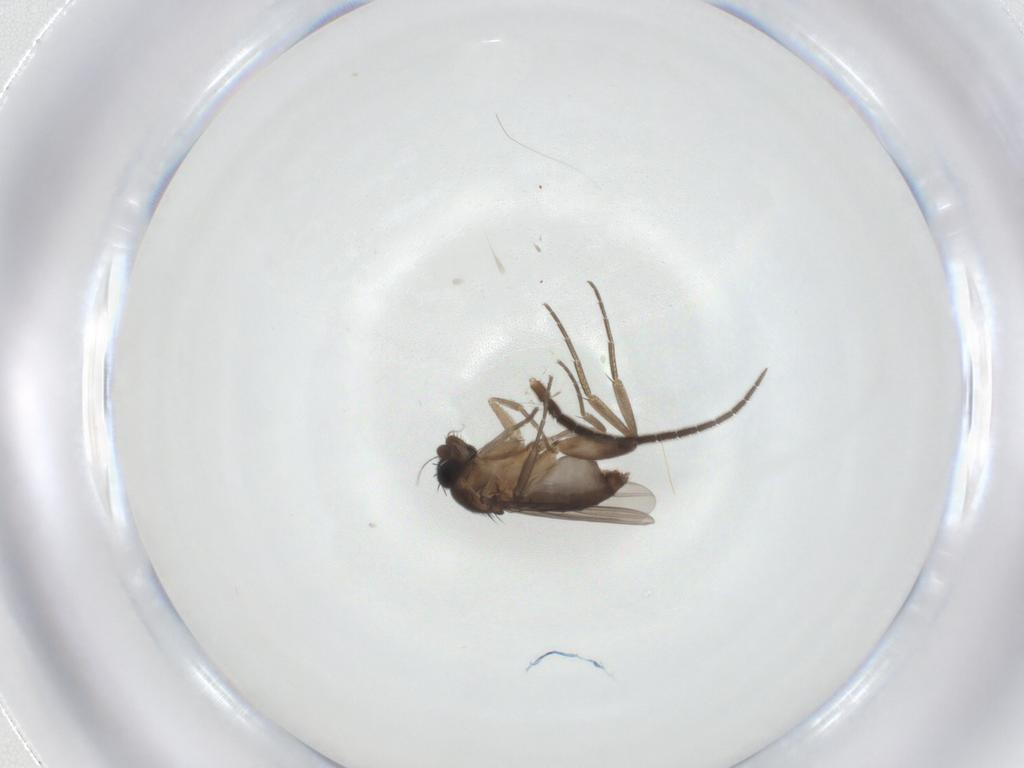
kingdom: Animalia
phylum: Arthropoda
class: Insecta
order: Diptera
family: Phoridae
